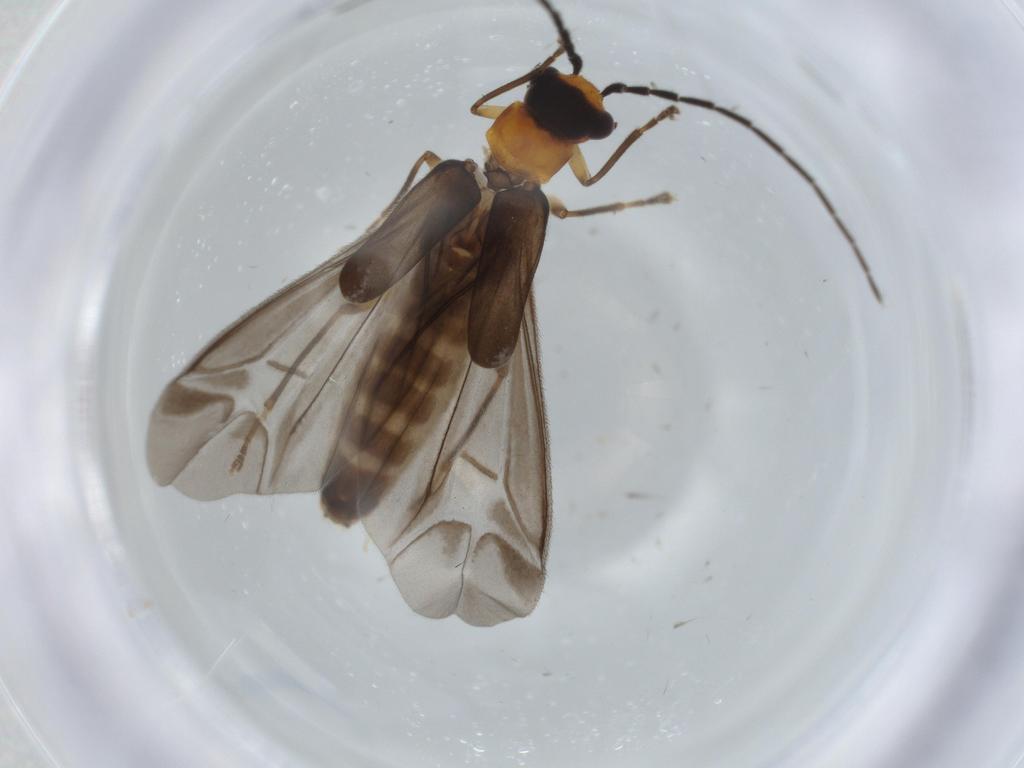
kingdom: Animalia
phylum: Arthropoda
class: Insecta
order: Coleoptera
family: Cantharidae
